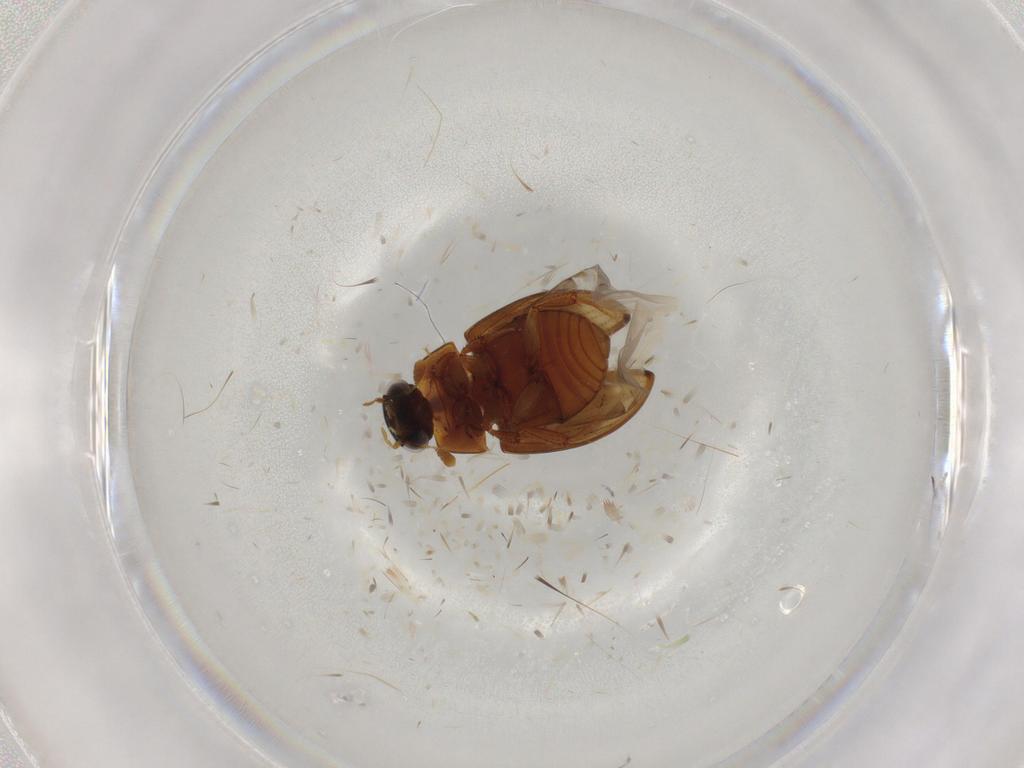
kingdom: Animalia
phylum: Arthropoda
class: Insecta
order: Coleoptera
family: Hydrophilidae
